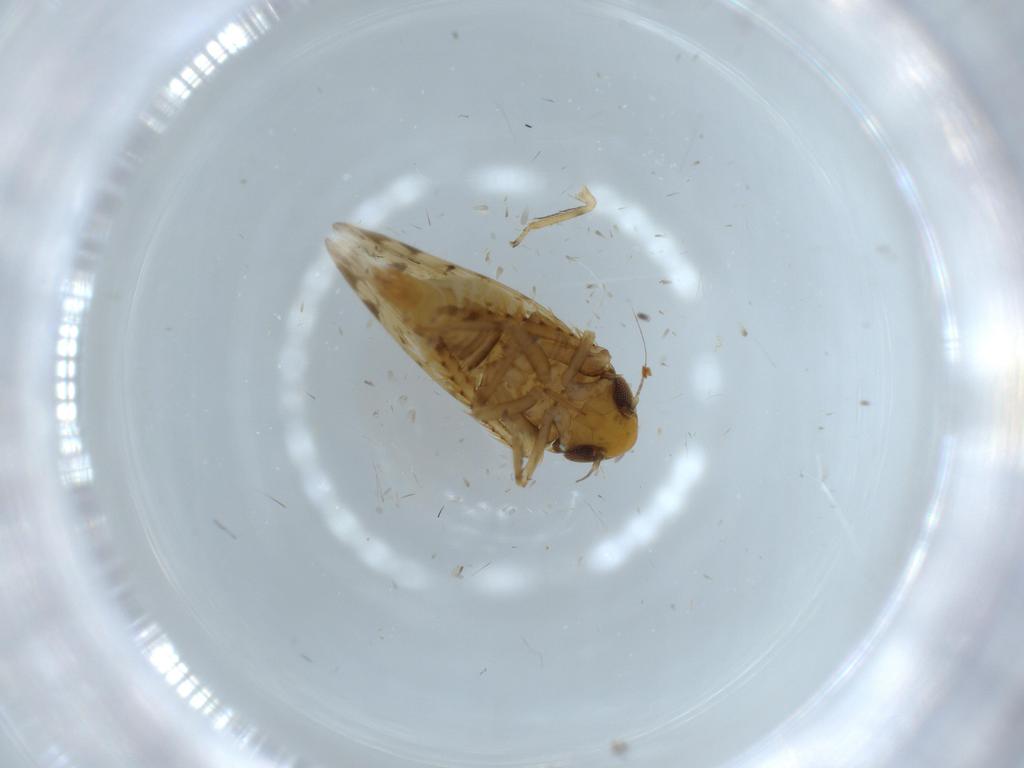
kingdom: Animalia
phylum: Arthropoda
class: Insecta
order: Hemiptera
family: Cicadellidae
